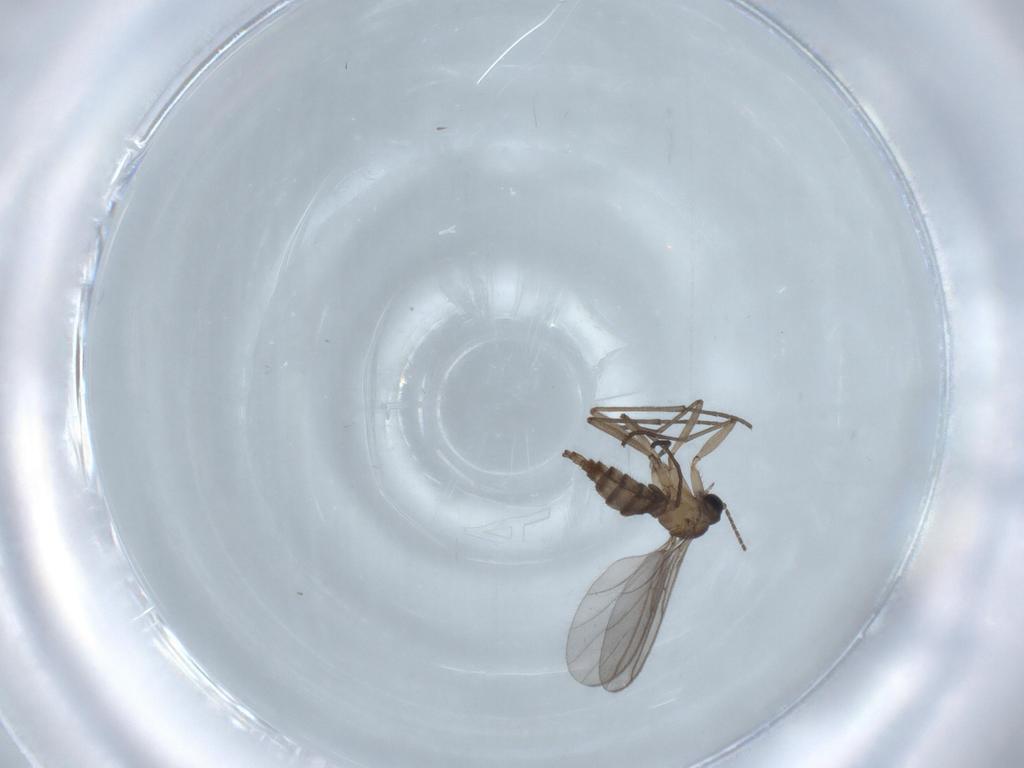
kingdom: Animalia
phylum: Arthropoda
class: Insecta
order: Diptera
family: Sciaridae
